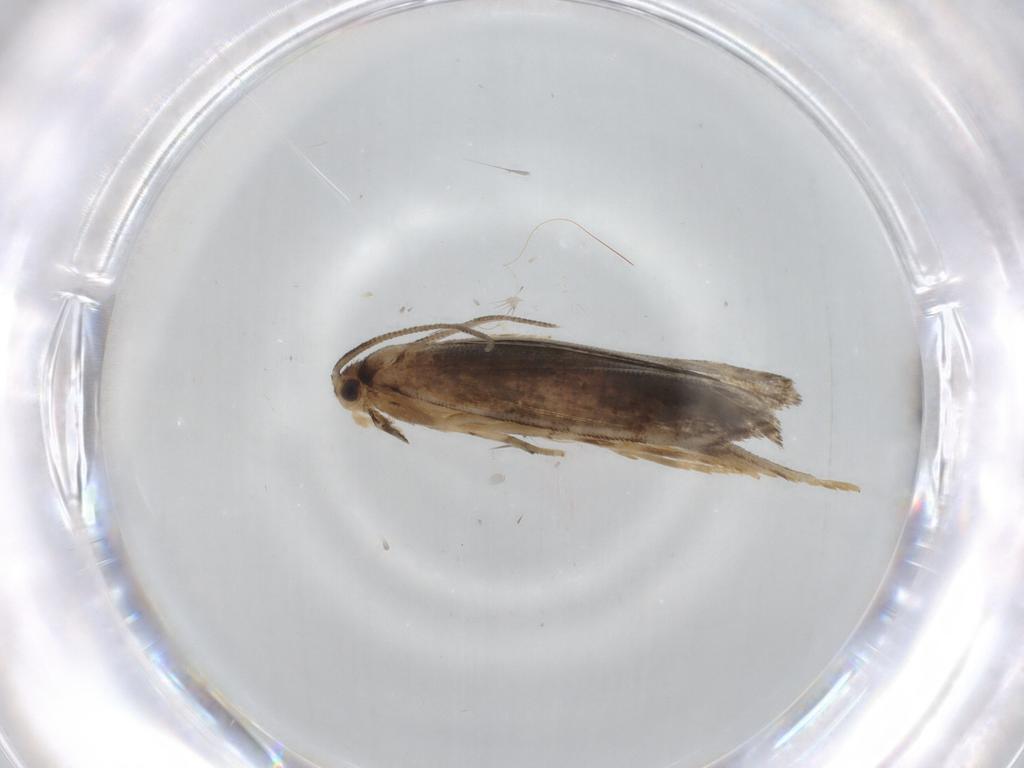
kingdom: Animalia
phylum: Arthropoda
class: Insecta
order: Lepidoptera
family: Dryadaulidae
